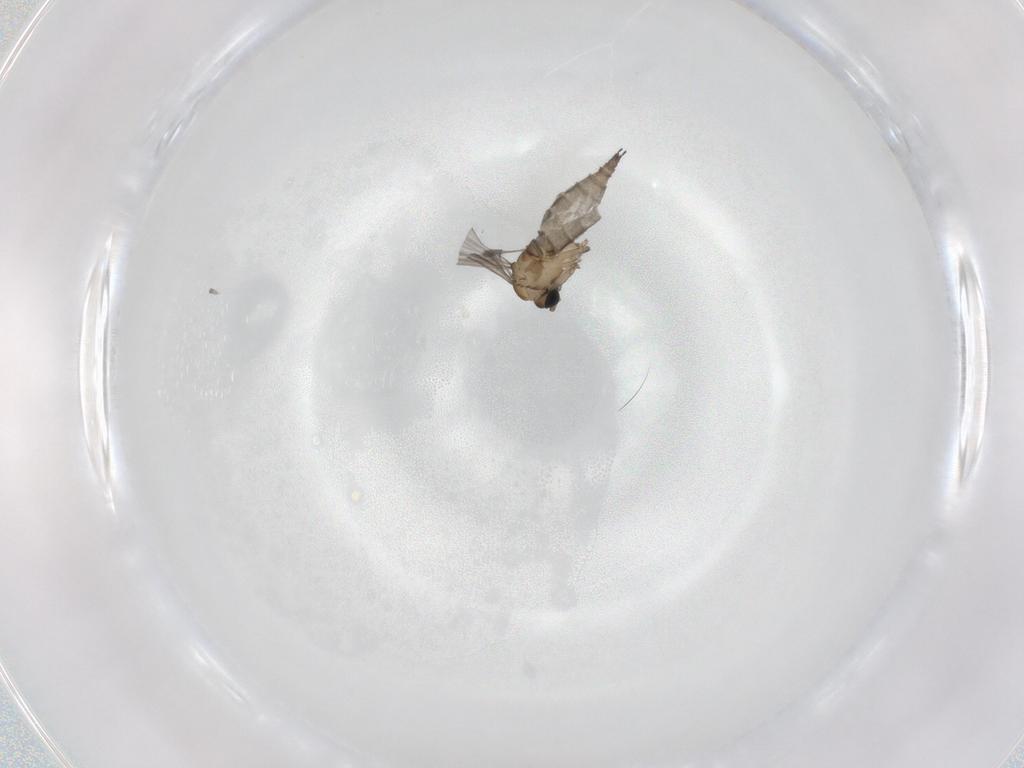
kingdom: Animalia
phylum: Arthropoda
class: Insecta
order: Diptera
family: Sciaridae
